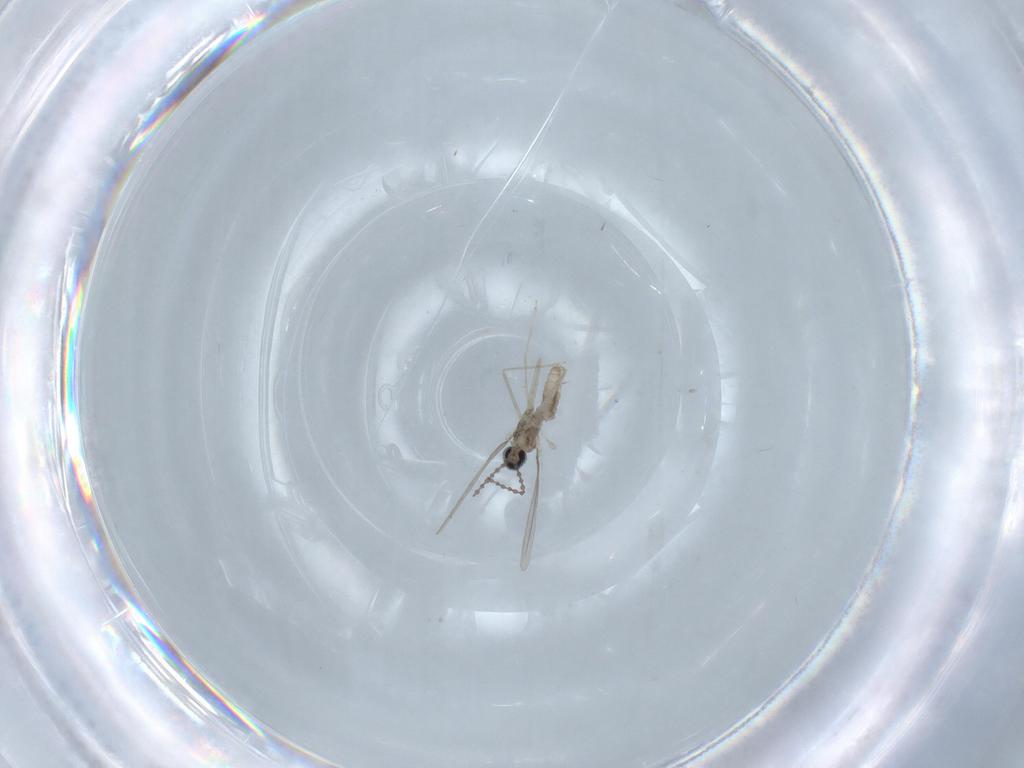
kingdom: Animalia
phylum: Arthropoda
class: Insecta
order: Diptera
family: Cecidomyiidae
